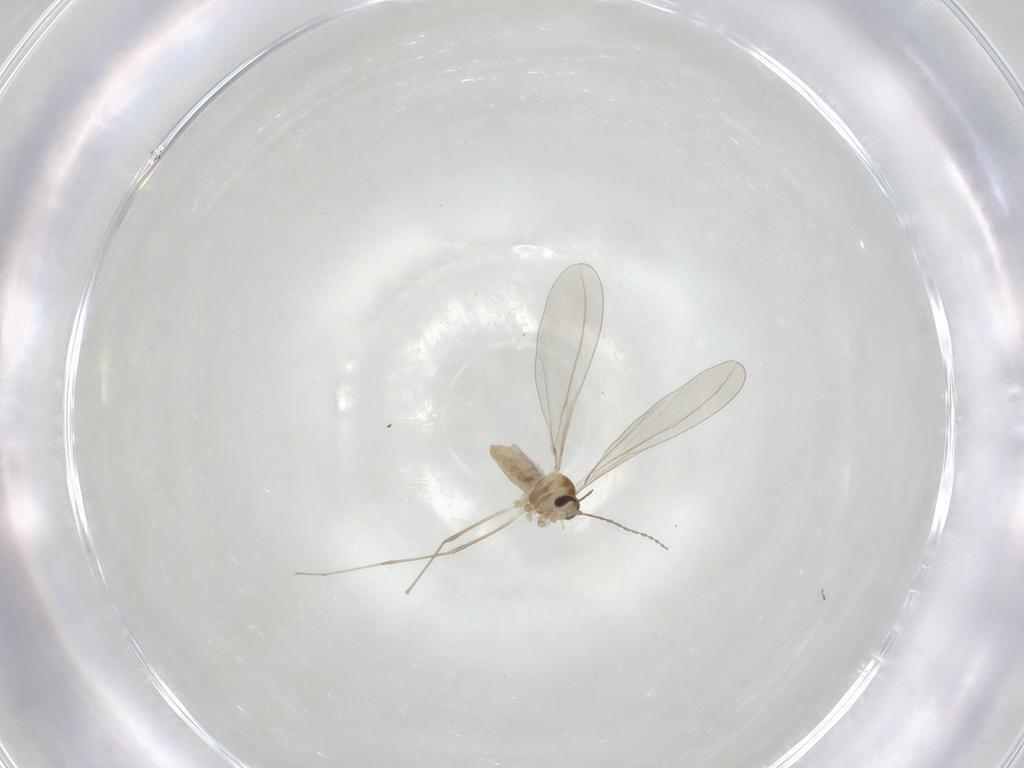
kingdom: Animalia
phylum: Arthropoda
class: Insecta
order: Diptera
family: Cecidomyiidae
